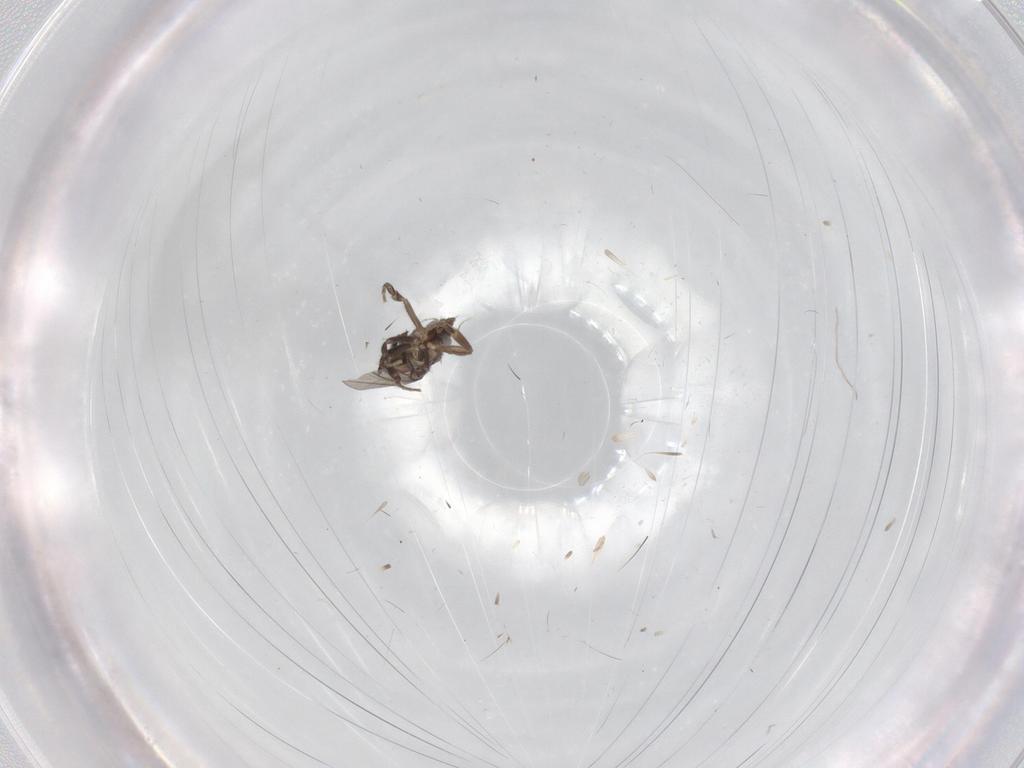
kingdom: Animalia
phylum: Arthropoda
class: Insecta
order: Diptera
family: Phoridae
